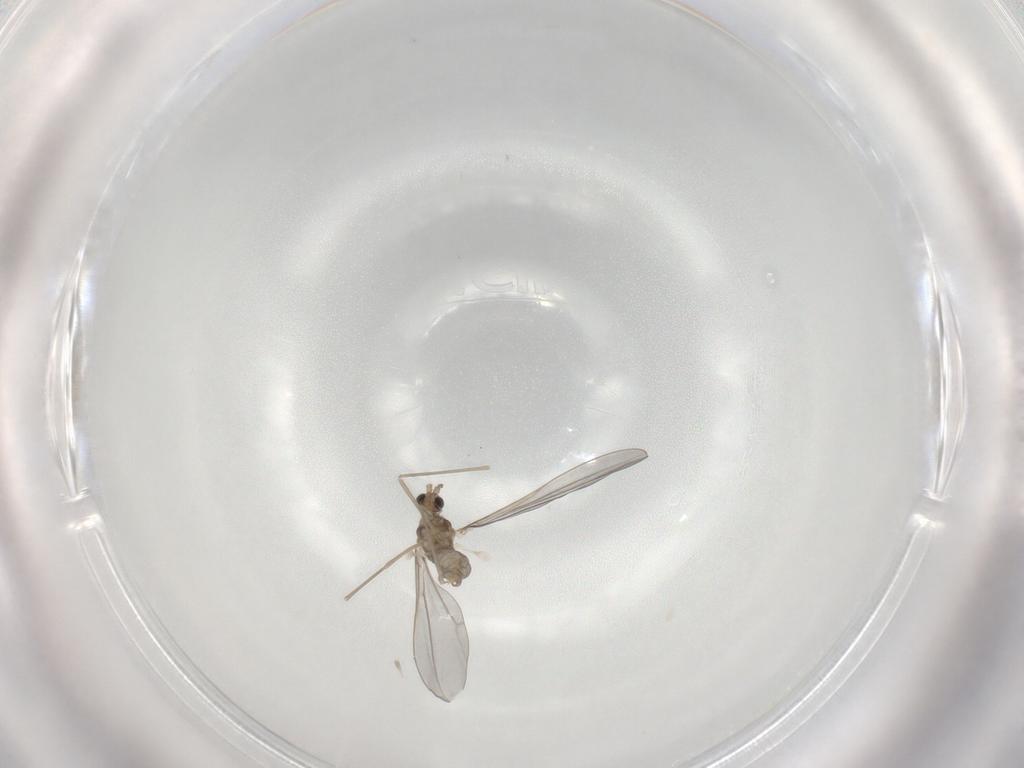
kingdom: Animalia
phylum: Arthropoda
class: Insecta
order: Diptera
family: Cecidomyiidae
